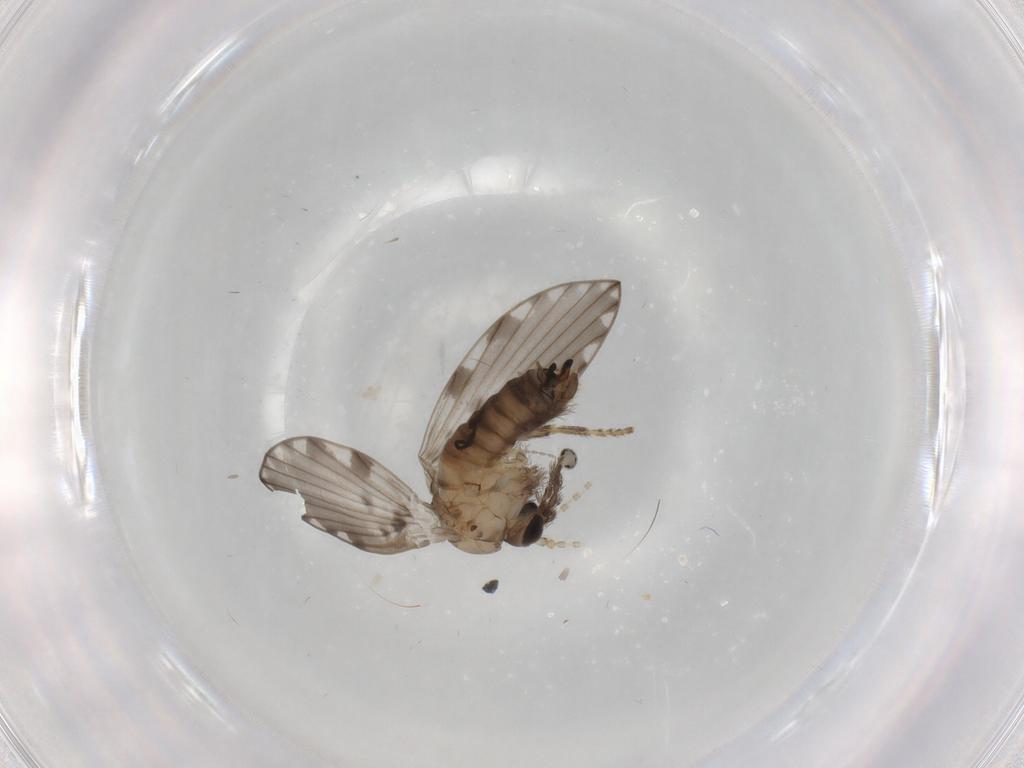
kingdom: Animalia
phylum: Arthropoda
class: Insecta
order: Diptera
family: Psychodidae
